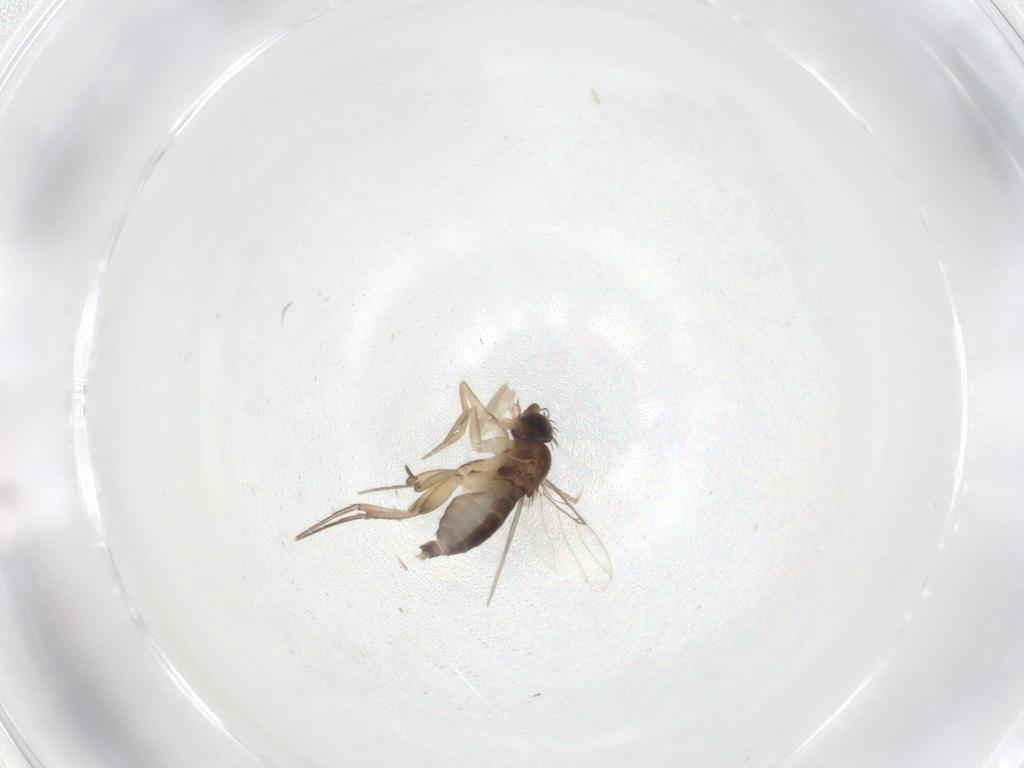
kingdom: Animalia
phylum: Arthropoda
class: Insecta
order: Diptera
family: Phoridae
